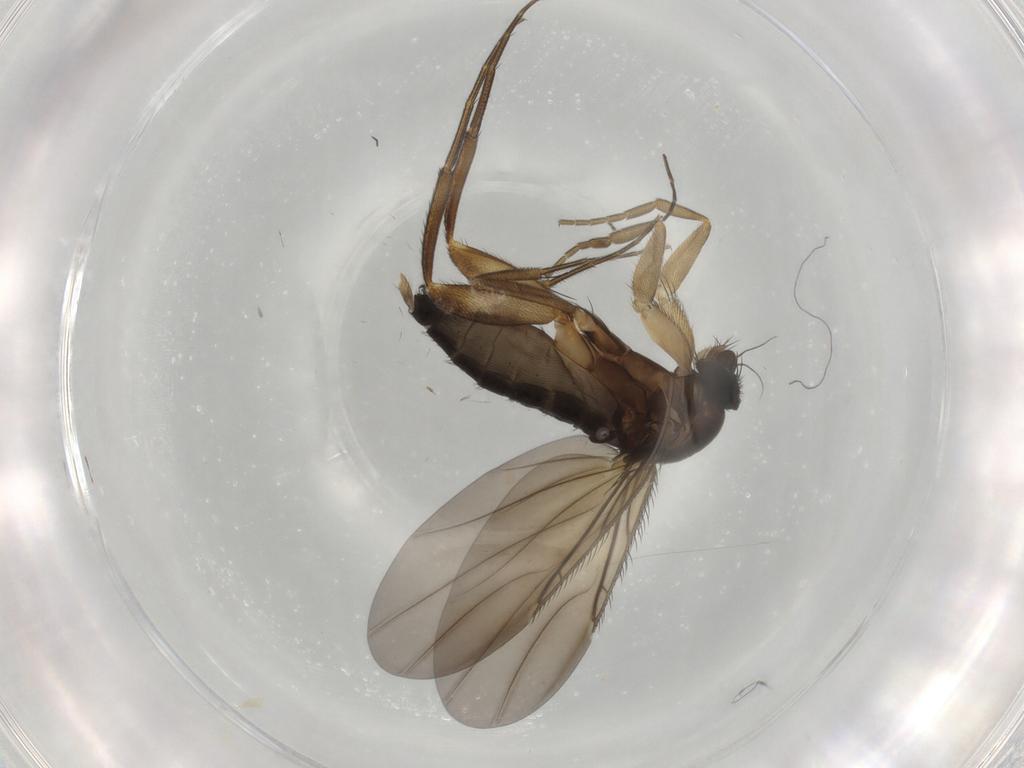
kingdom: Animalia
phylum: Arthropoda
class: Insecta
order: Diptera
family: Phoridae
